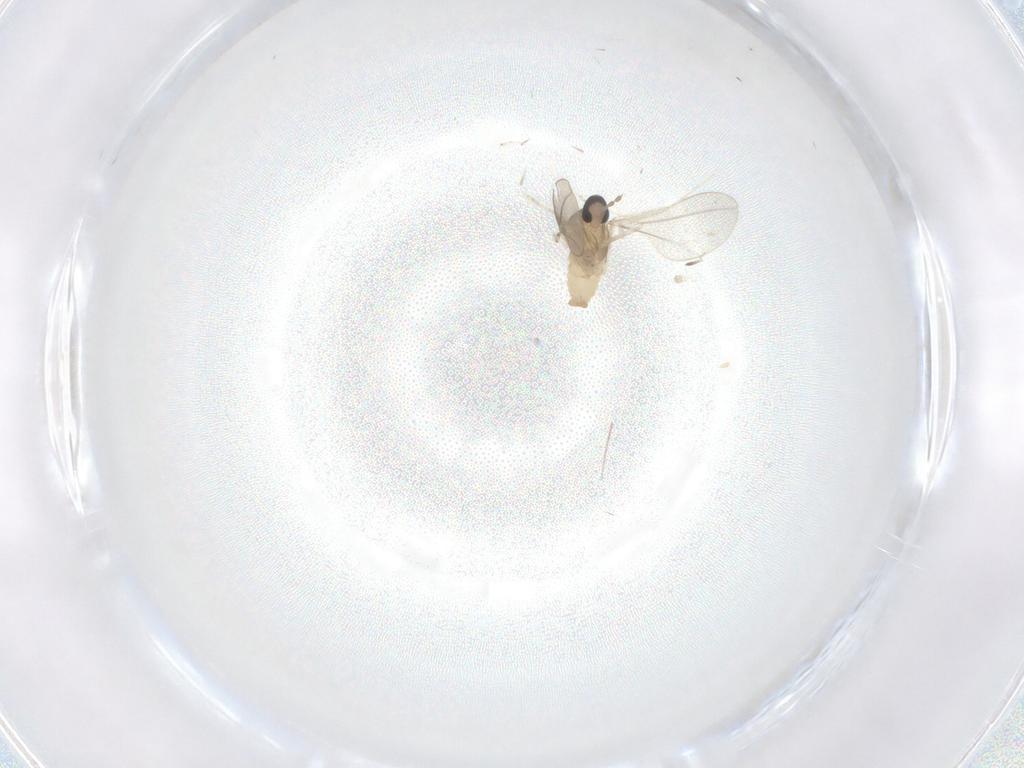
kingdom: Animalia
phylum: Arthropoda
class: Insecta
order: Diptera
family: Cecidomyiidae
